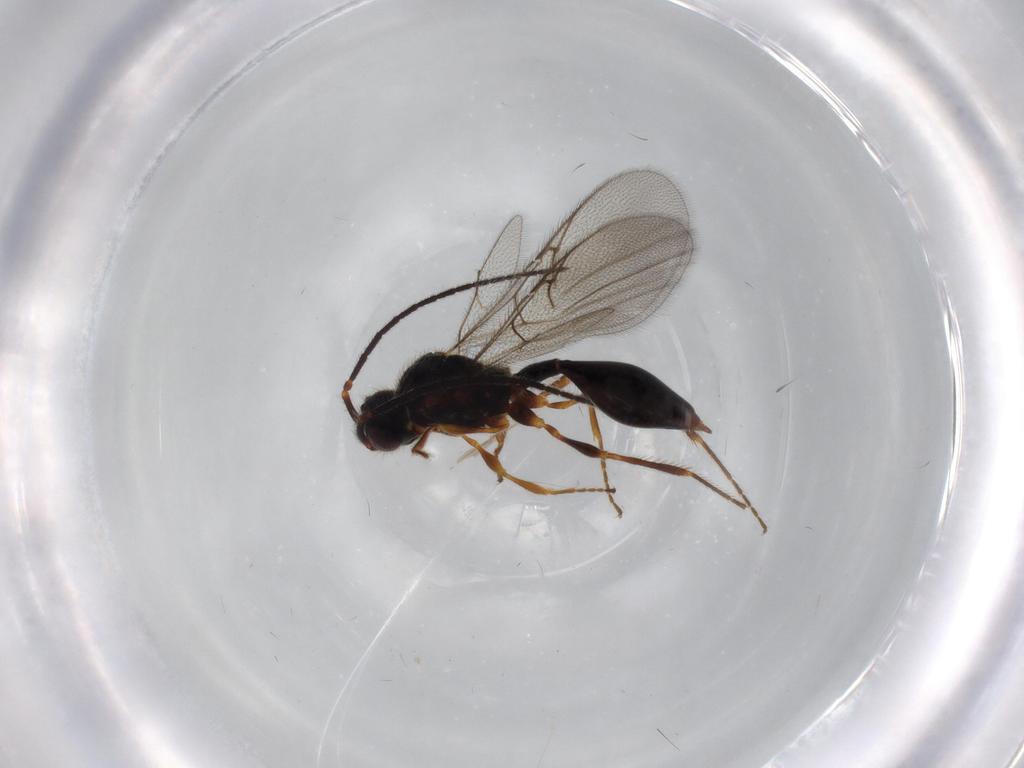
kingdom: Animalia
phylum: Arthropoda
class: Insecta
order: Hymenoptera
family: Diapriidae
